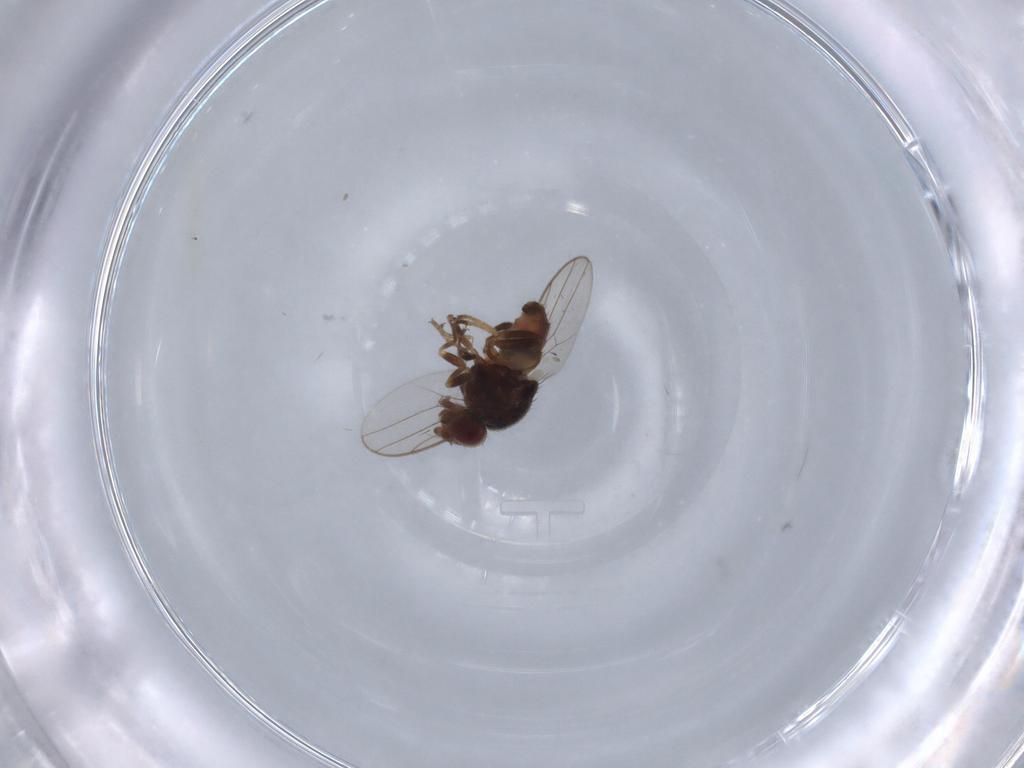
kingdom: Animalia
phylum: Arthropoda
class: Insecta
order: Diptera
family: Chloropidae
